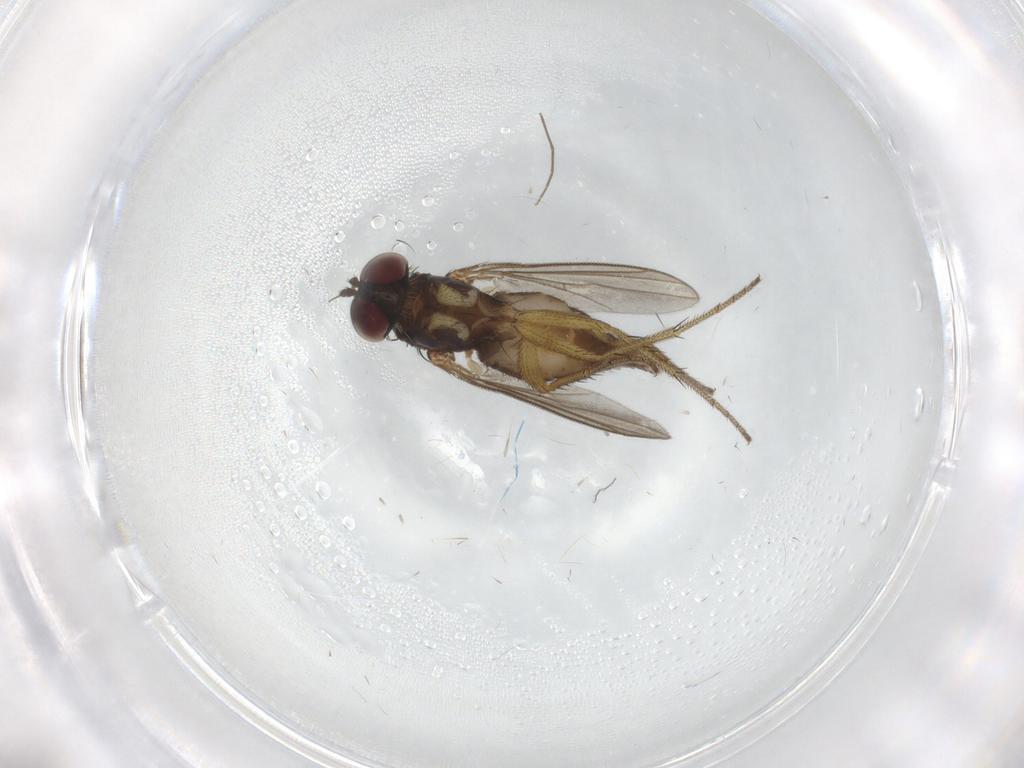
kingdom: Animalia
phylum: Arthropoda
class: Insecta
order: Diptera
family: Dolichopodidae
